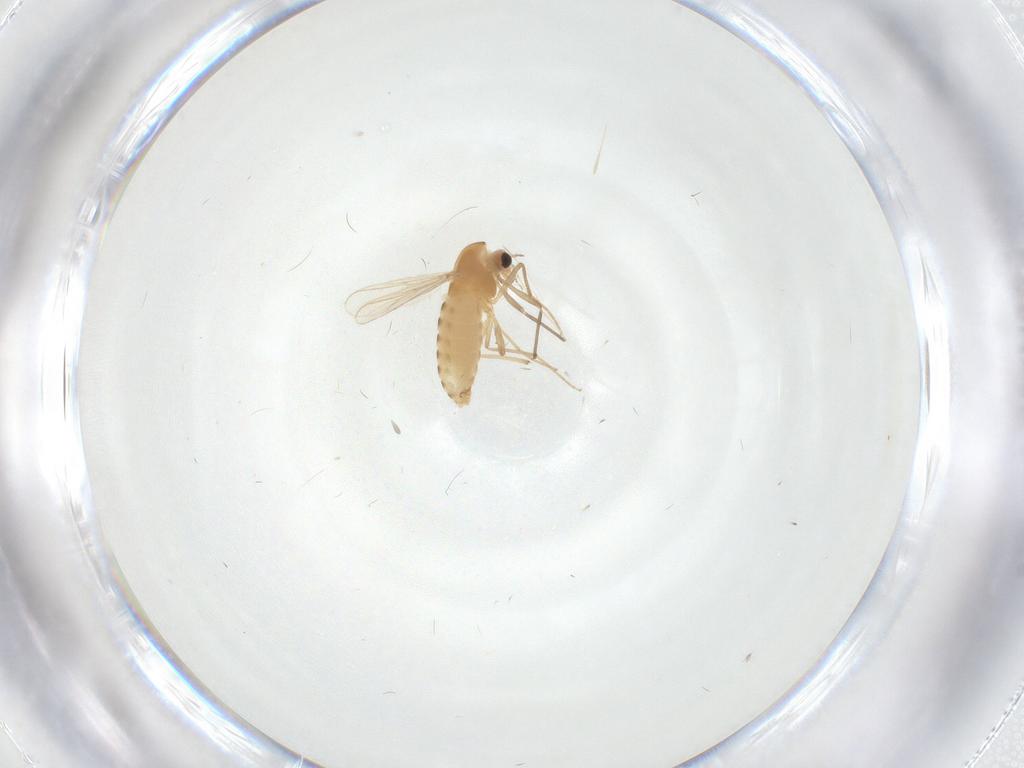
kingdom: Animalia
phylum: Arthropoda
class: Insecta
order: Diptera
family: Chironomidae
